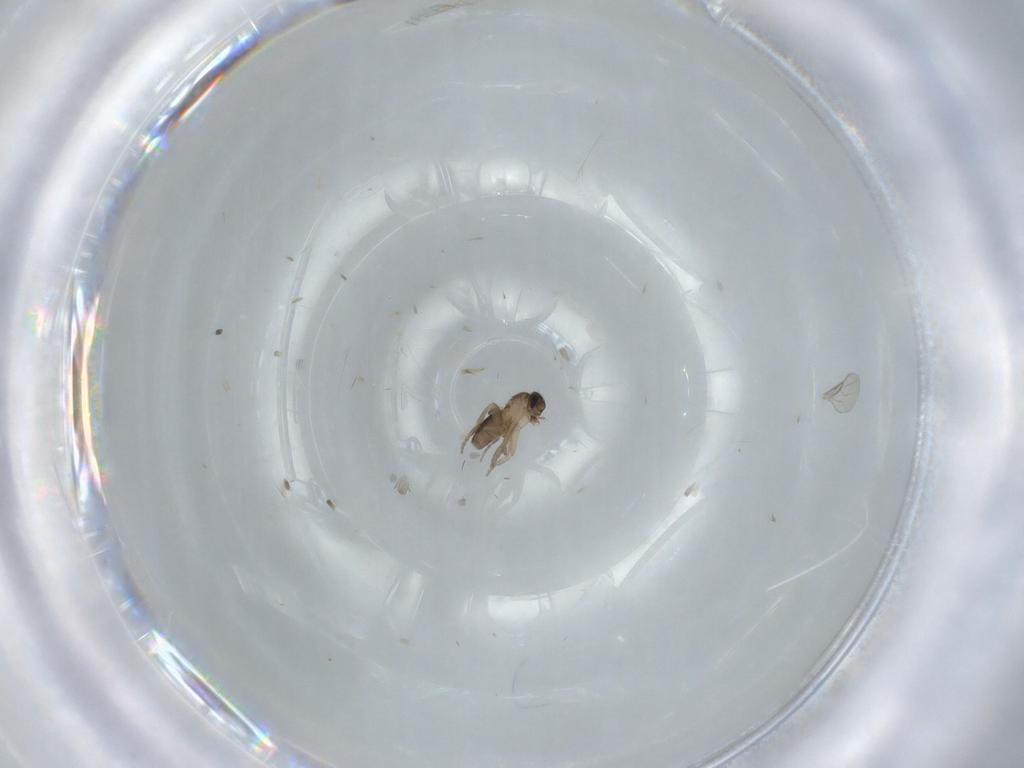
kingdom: Animalia
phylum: Arthropoda
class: Insecta
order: Diptera
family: Phoridae
